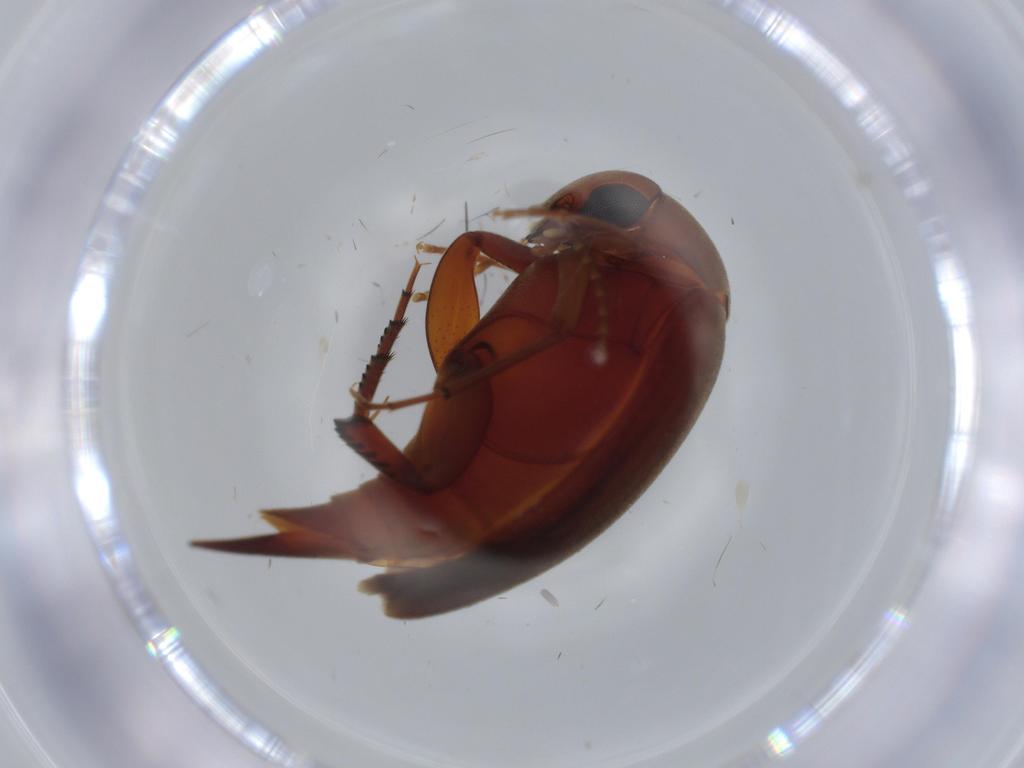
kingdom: Animalia
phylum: Arthropoda
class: Insecta
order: Coleoptera
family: Mordellidae
